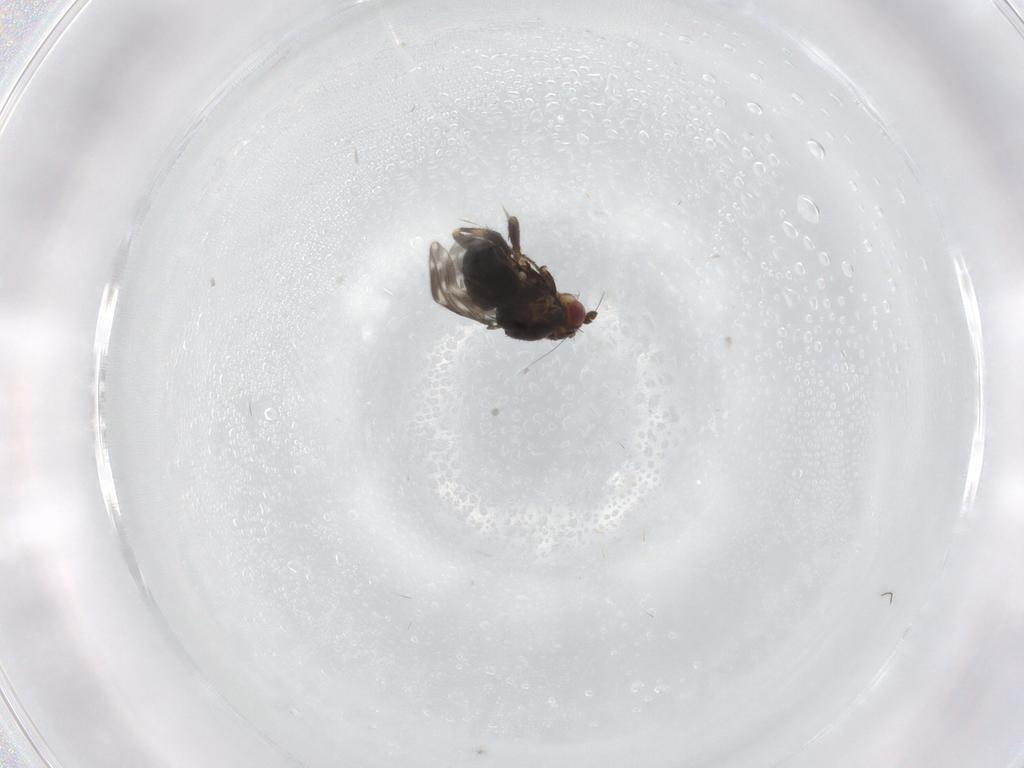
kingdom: Animalia
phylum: Arthropoda
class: Insecta
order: Diptera
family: Sphaeroceridae
